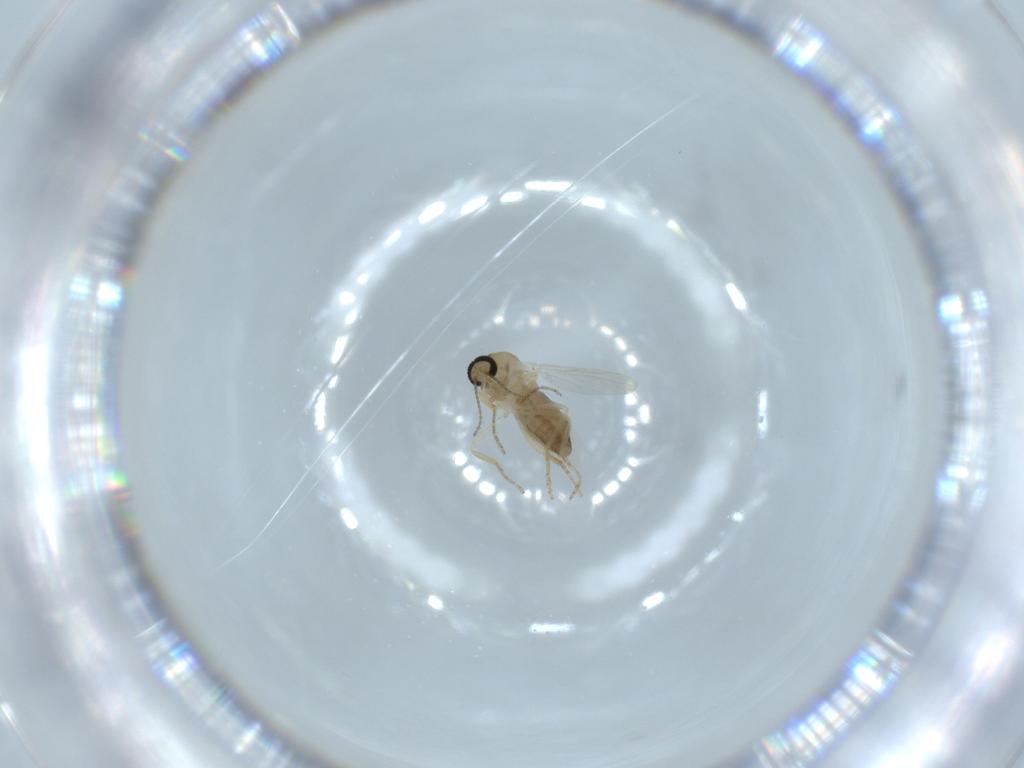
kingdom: Animalia
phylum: Arthropoda
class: Insecta
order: Diptera
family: Ceratopogonidae
